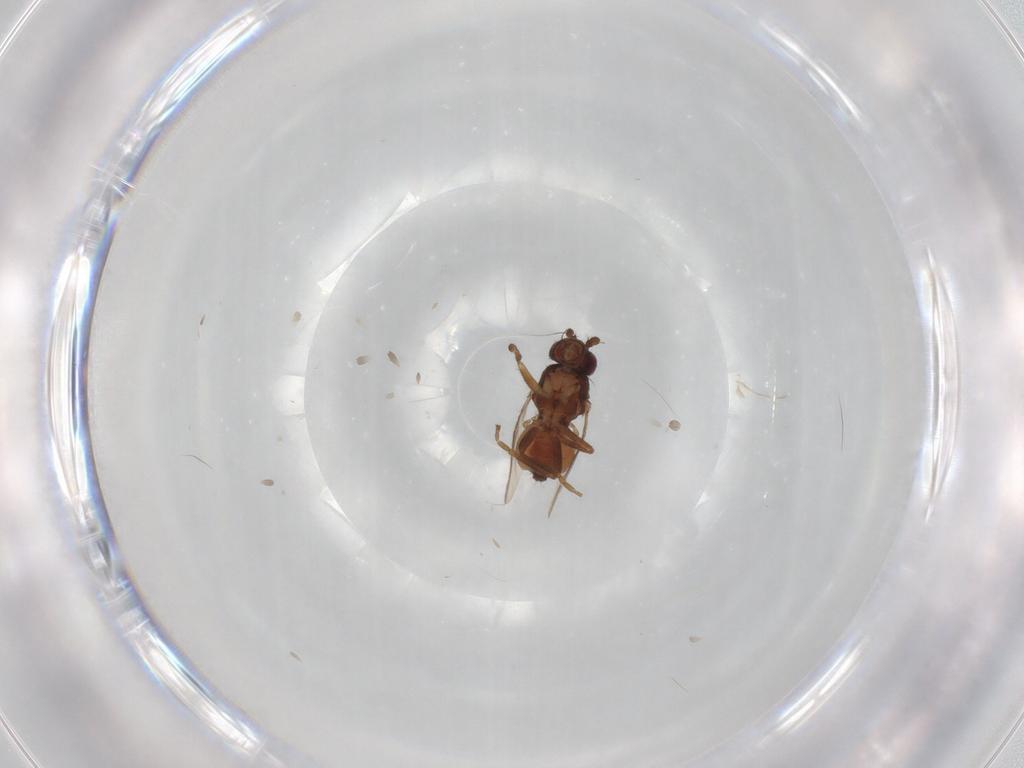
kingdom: Animalia
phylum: Arthropoda
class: Insecta
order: Diptera
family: Sphaeroceridae
